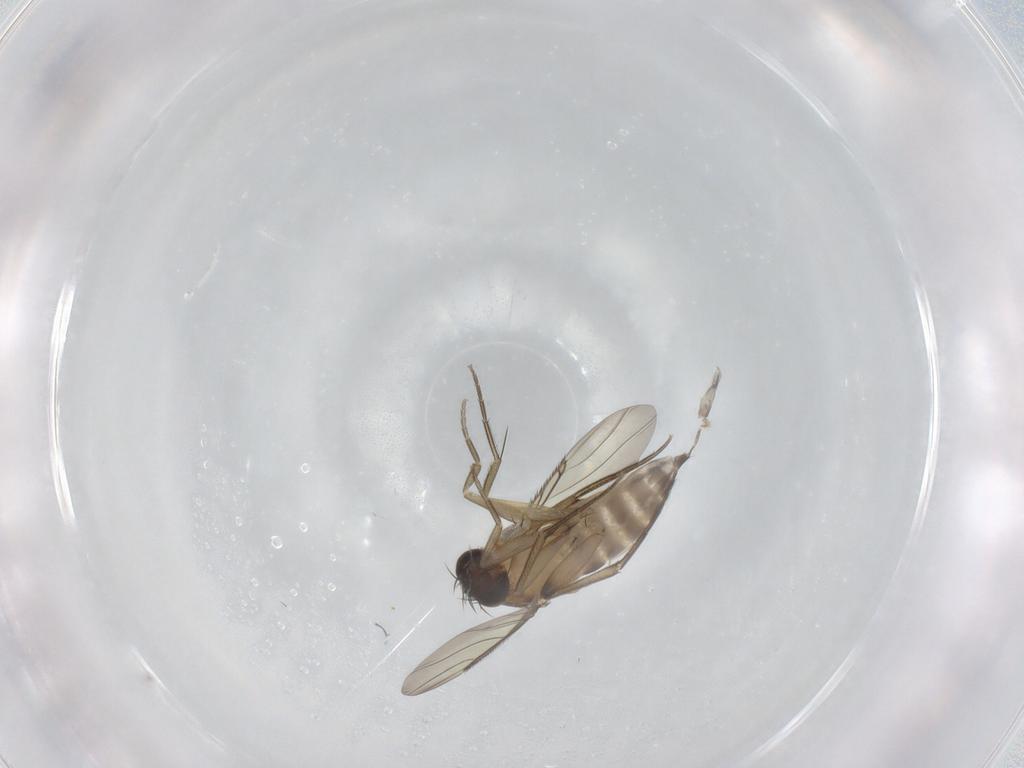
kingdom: Animalia
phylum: Arthropoda
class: Insecta
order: Diptera
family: Phoridae
